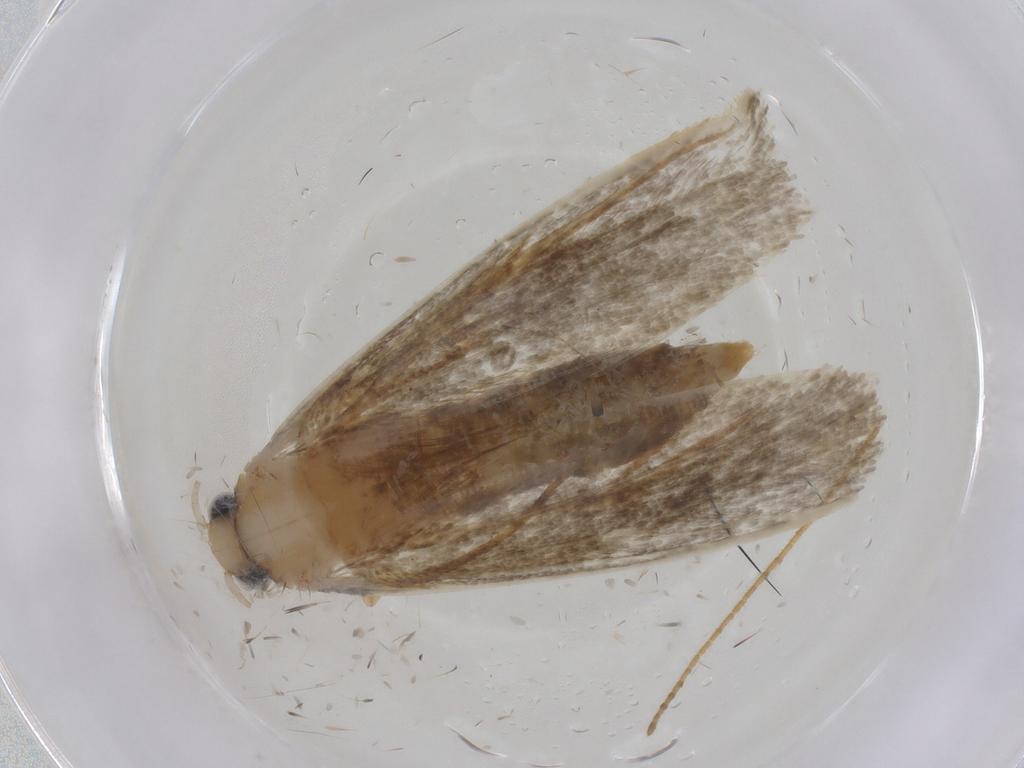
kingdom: Animalia
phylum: Arthropoda
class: Insecta
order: Lepidoptera
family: Tineidae
